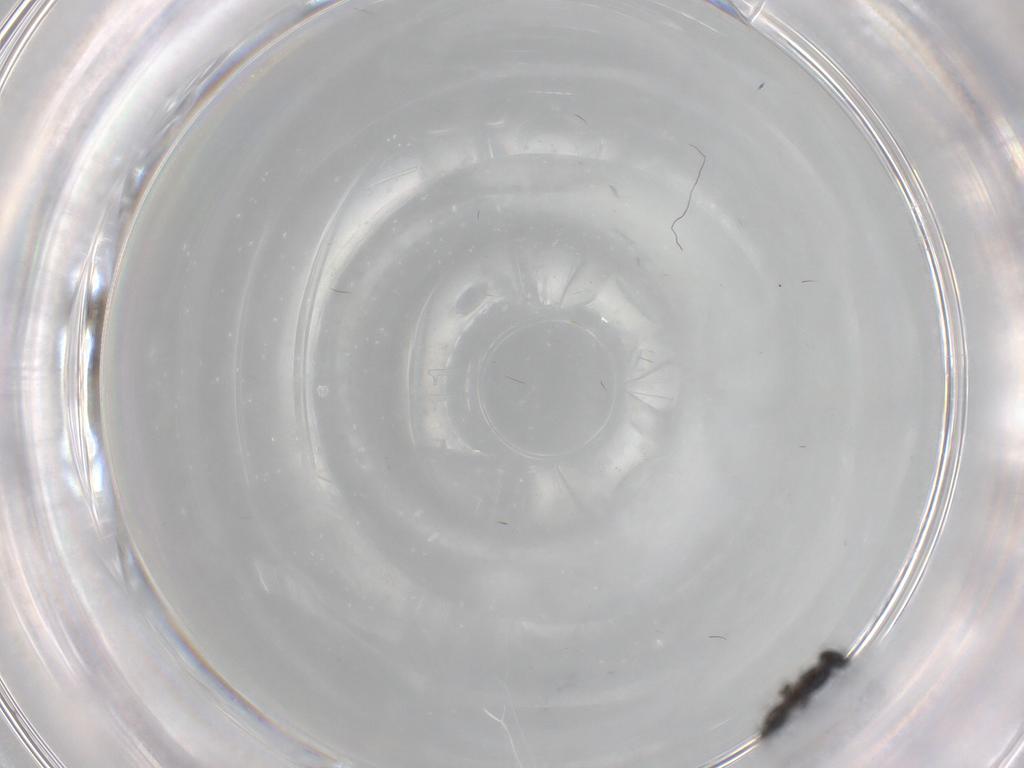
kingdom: Animalia
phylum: Arthropoda
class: Insecta
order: Hymenoptera
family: Platygastridae
